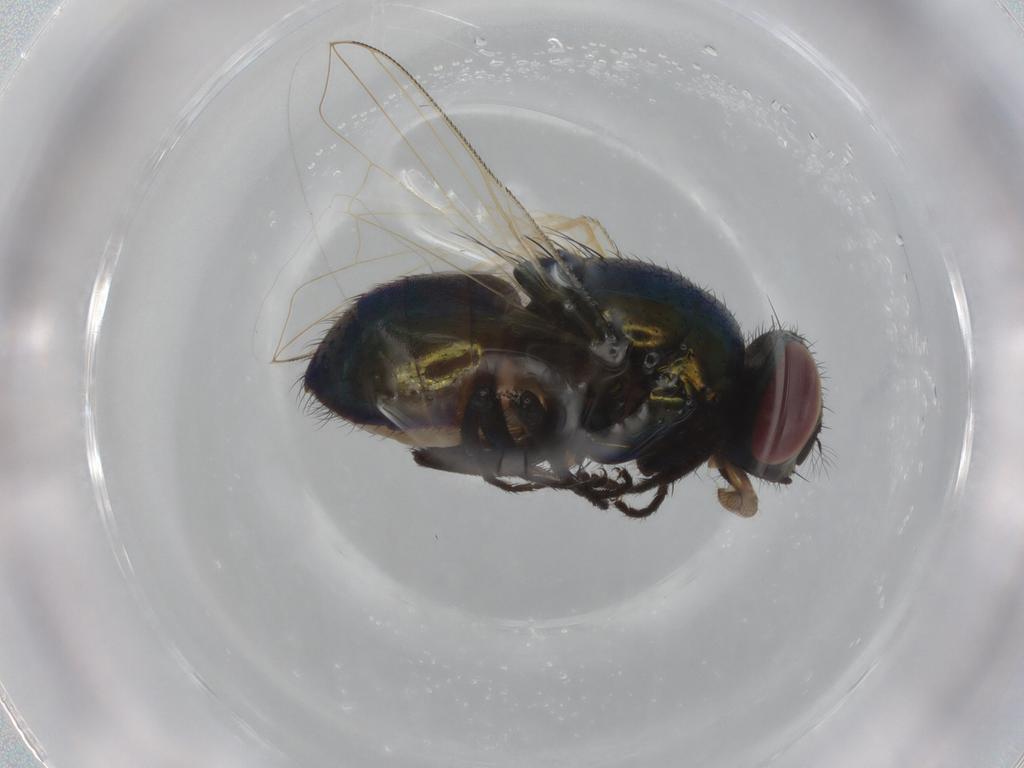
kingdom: Animalia
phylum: Arthropoda
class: Insecta
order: Diptera
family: Muscidae
